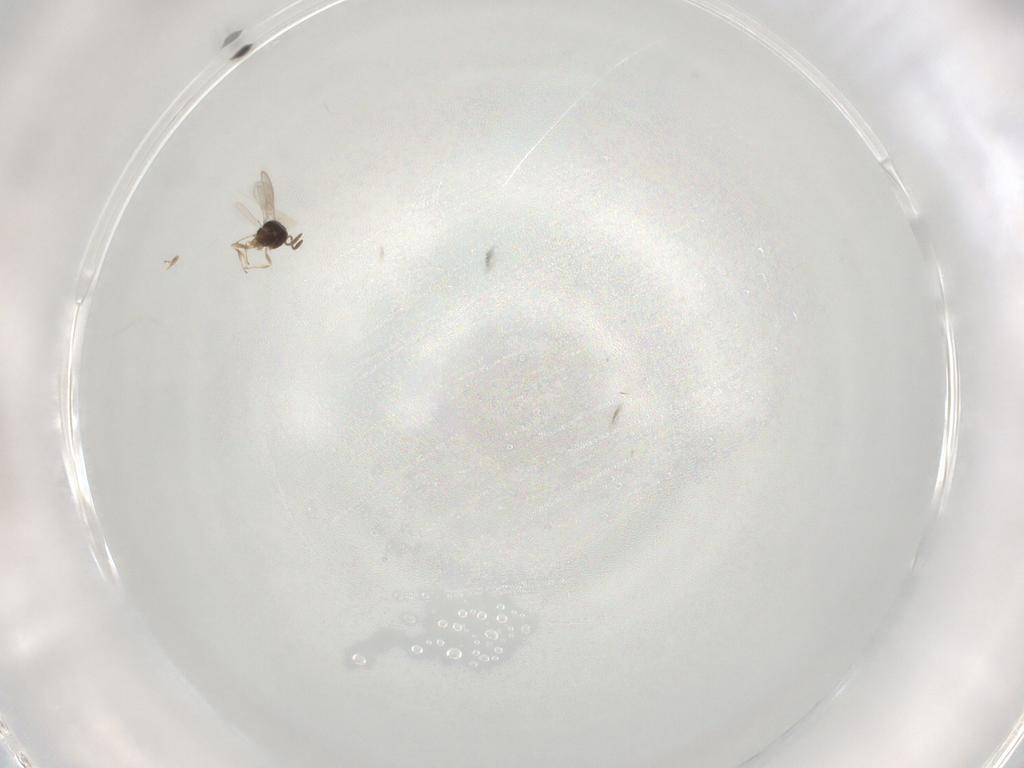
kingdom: Animalia
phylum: Arthropoda
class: Insecta
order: Hymenoptera
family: Scelionidae
